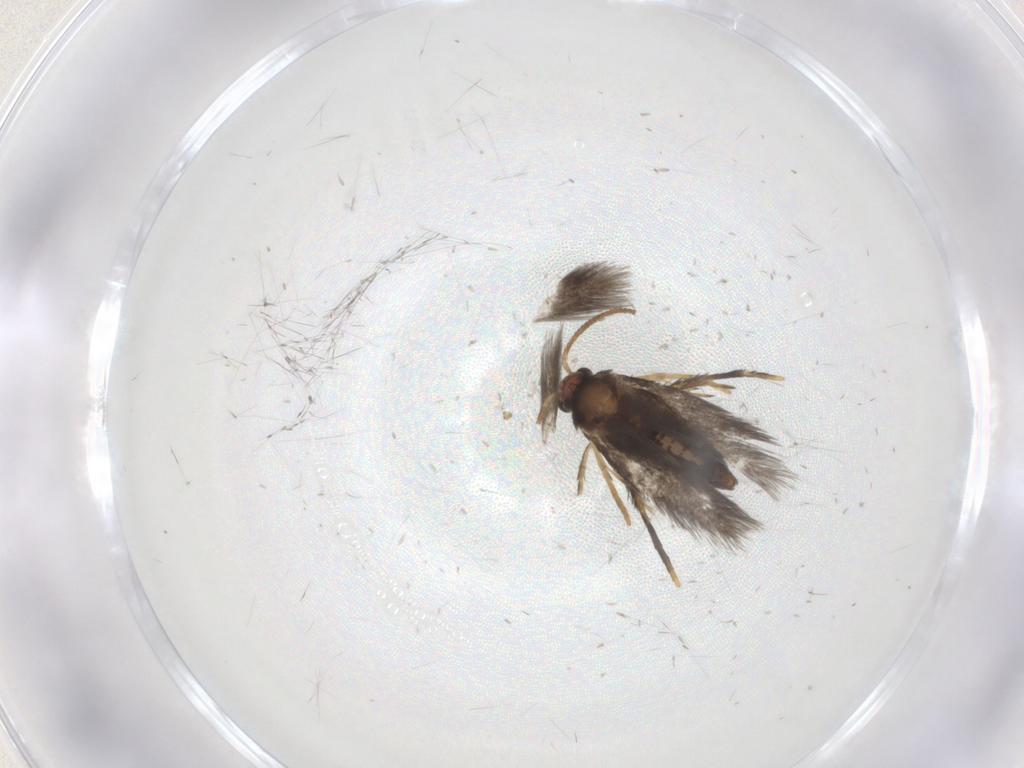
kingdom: Animalia
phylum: Arthropoda
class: Insecta
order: Lepidoptera
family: Nepticulidae
